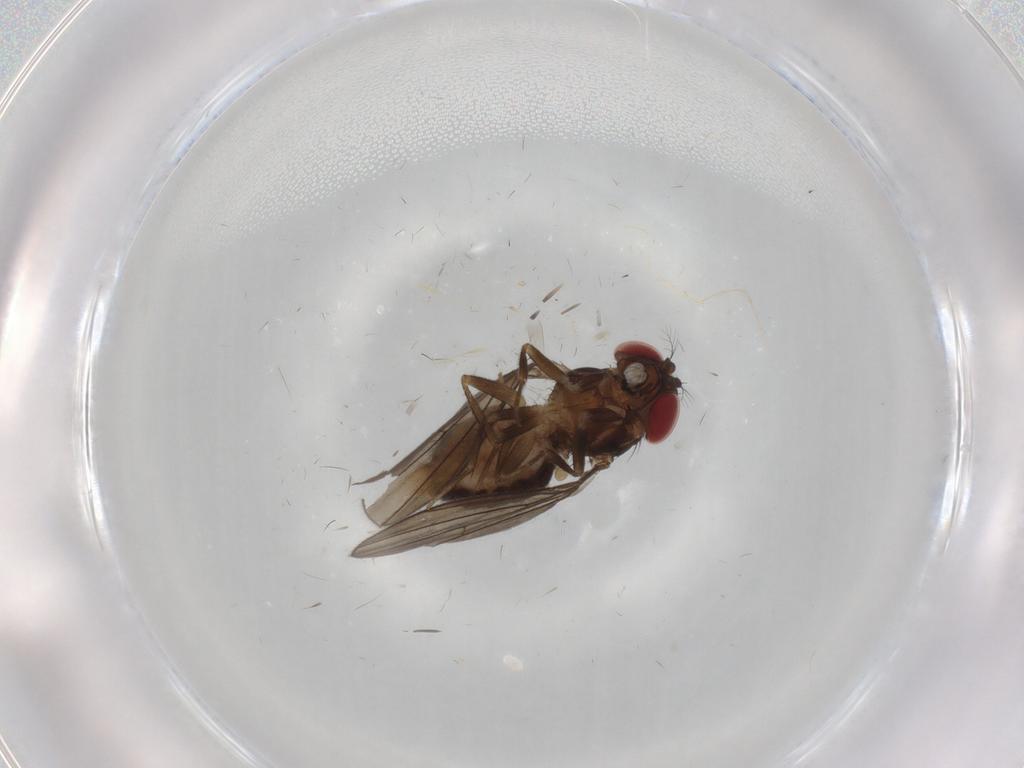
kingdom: Animalia
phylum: Arthropoda
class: Insecta
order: Diptera
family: Drosophilidae
